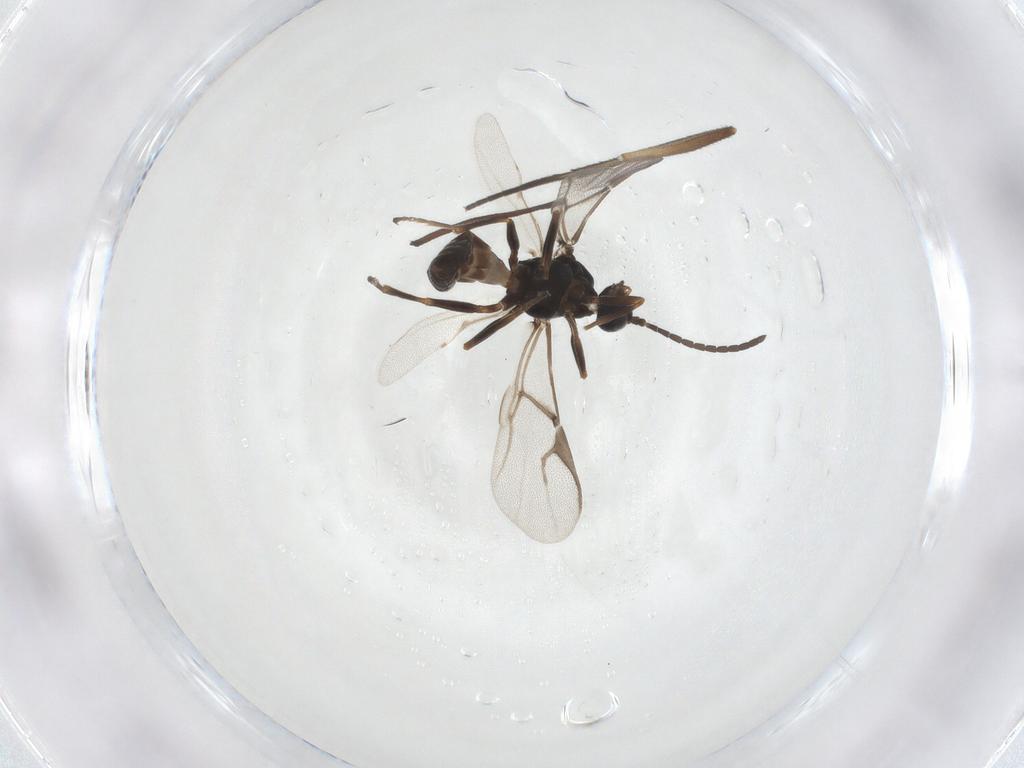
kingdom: Animalia
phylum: Arthropoda
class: Insecta
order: Hymenoptera
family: Braconidae
